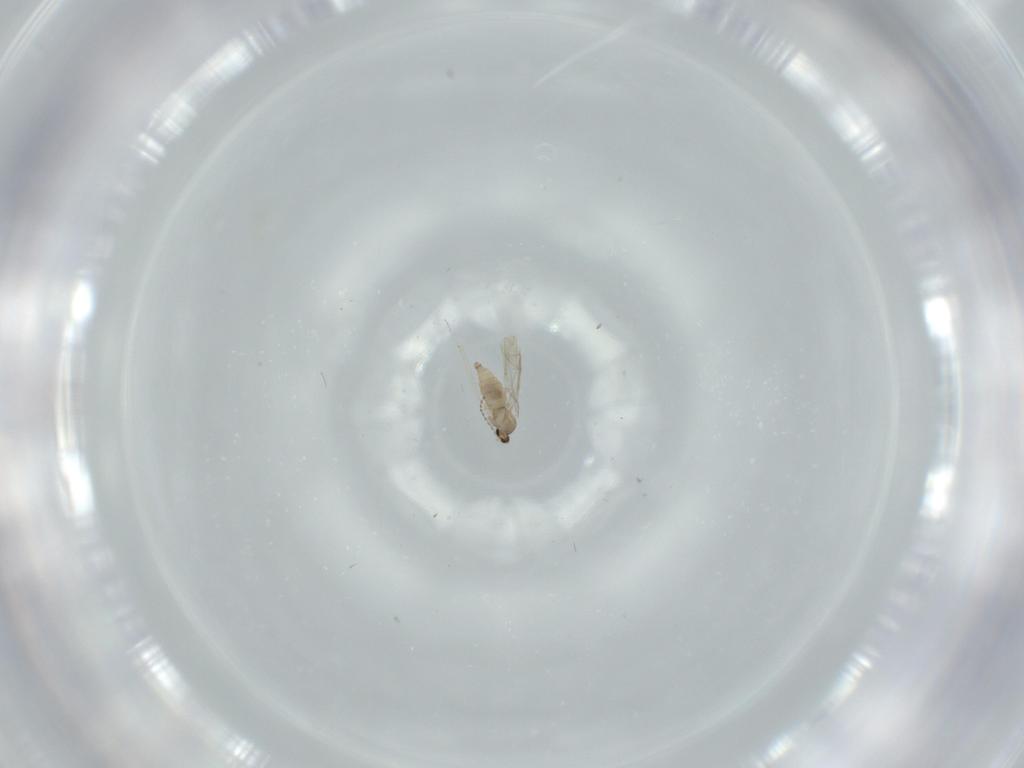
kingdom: Animalia
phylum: Arthropoda
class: Insecta
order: Diptera
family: Cecidomyiidae
